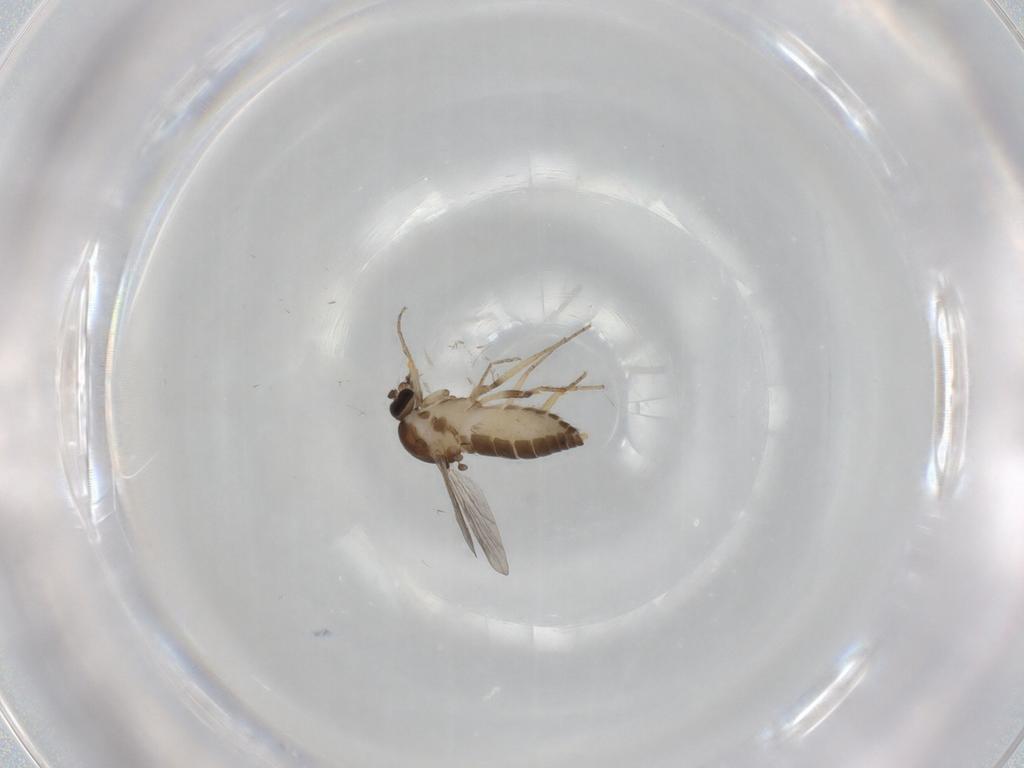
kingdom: Animalia
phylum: Arthropoda
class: Insecta
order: Diptera
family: Ceratopogonidae
